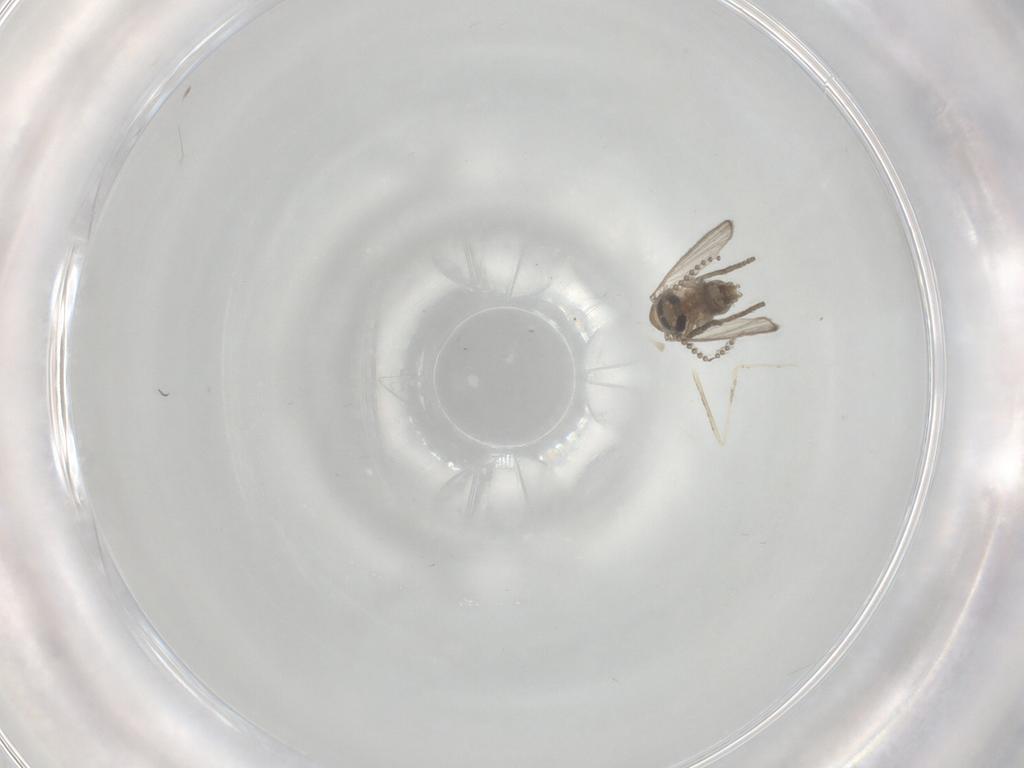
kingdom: Animalia
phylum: Arthropoda
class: Insecta
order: Diptera
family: Psychodidae
